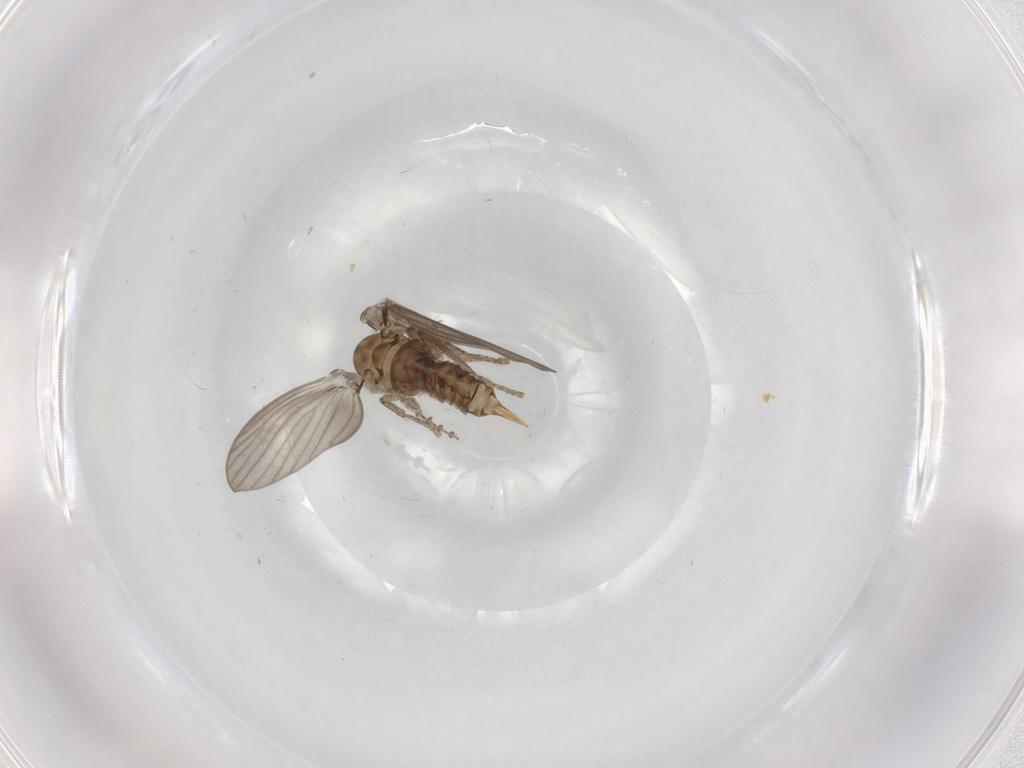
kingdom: Animalia
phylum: Arthropoda
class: Insecta
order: Diptera
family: Psychodidae
